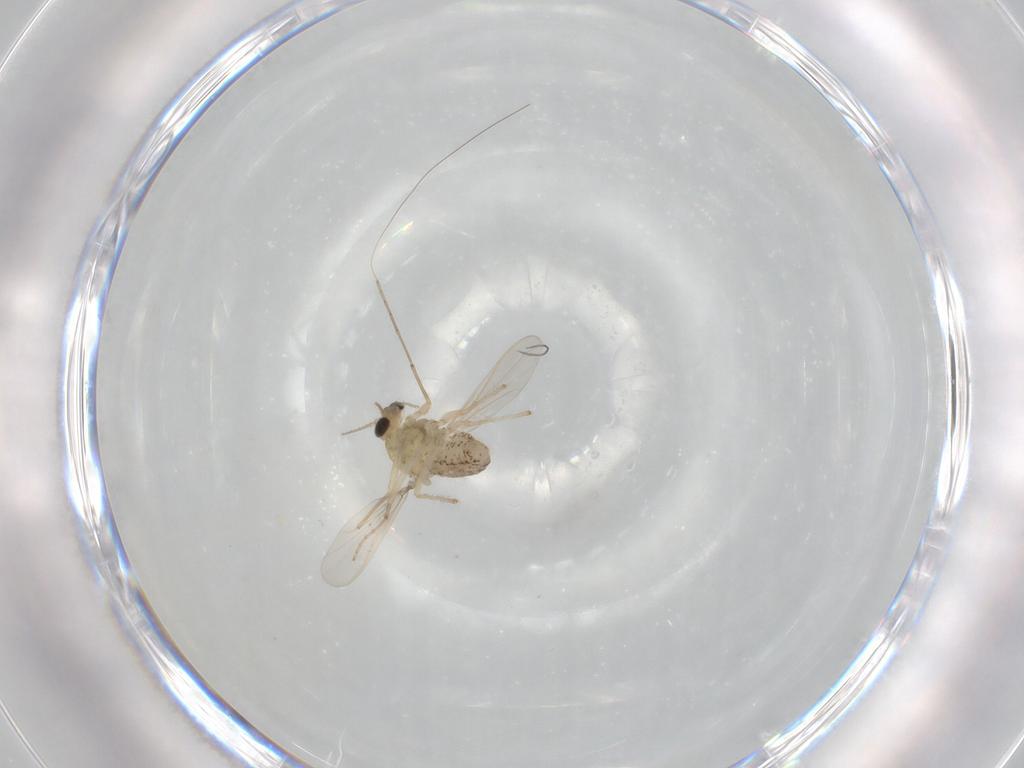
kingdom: Animalia
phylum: Arthropoda
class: Insecta
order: Diptera
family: Chironomidae
